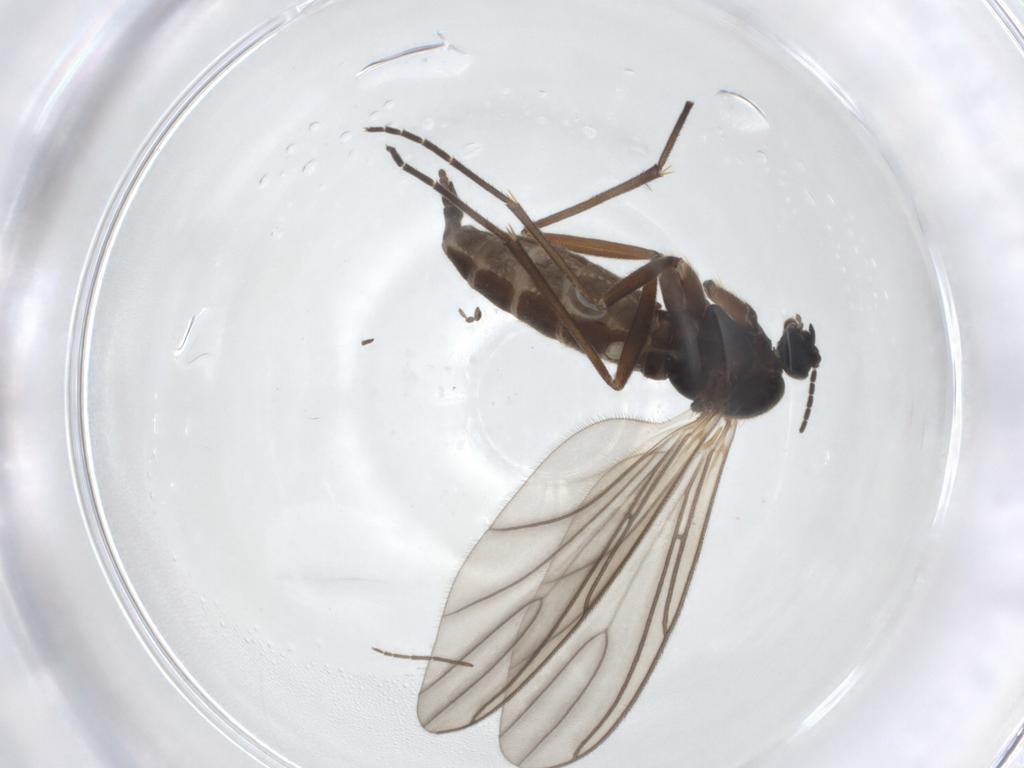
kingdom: Animalia
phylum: Arthropoda
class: Insecta
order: Diptera
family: Sciaridae
